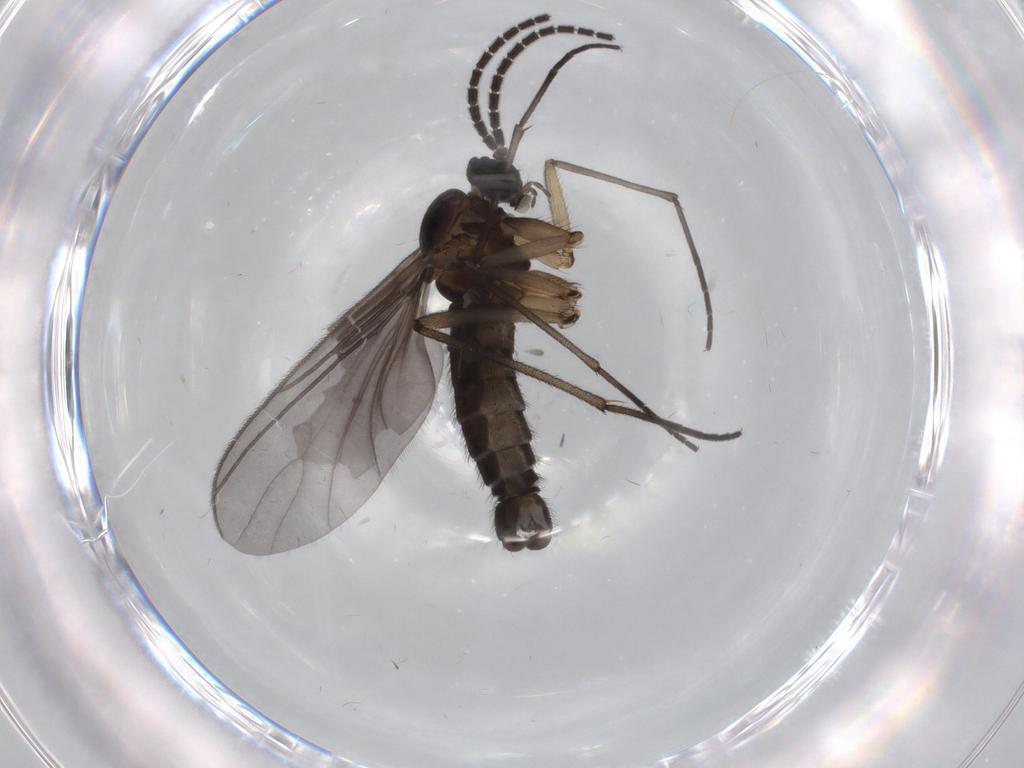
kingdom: Animalia
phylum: Arthropoda
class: Insecta
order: Diptera
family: Sciaridae
